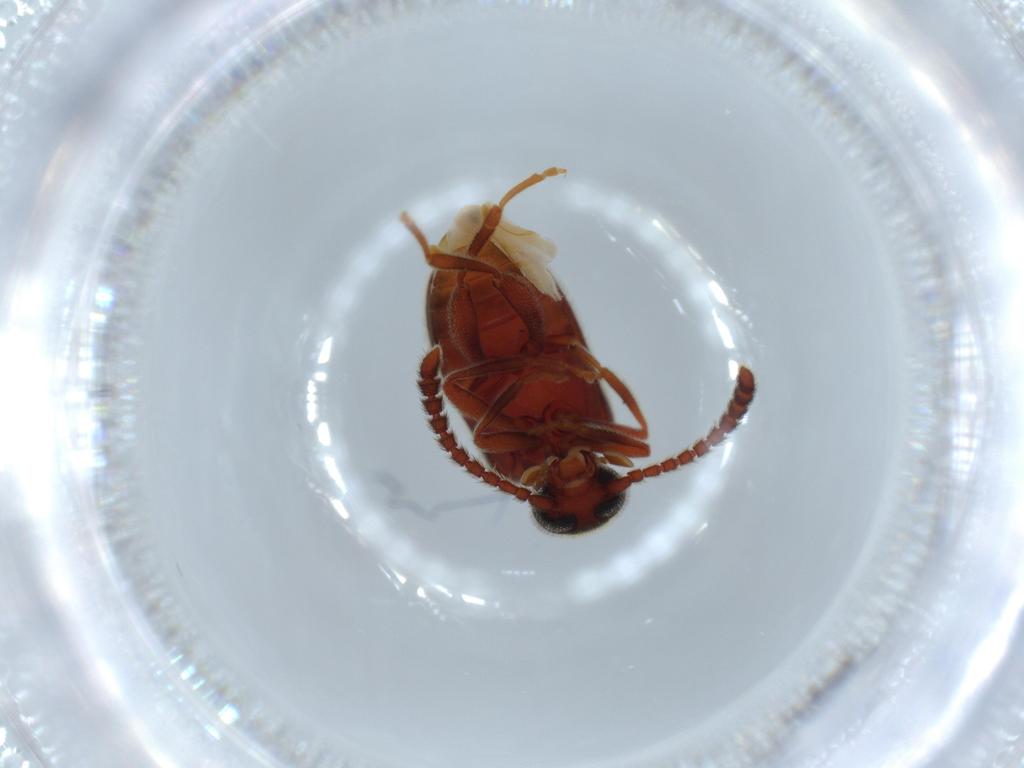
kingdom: Animalia
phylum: Arthropoda
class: Insecta
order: Coleoptera
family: Aderidae
